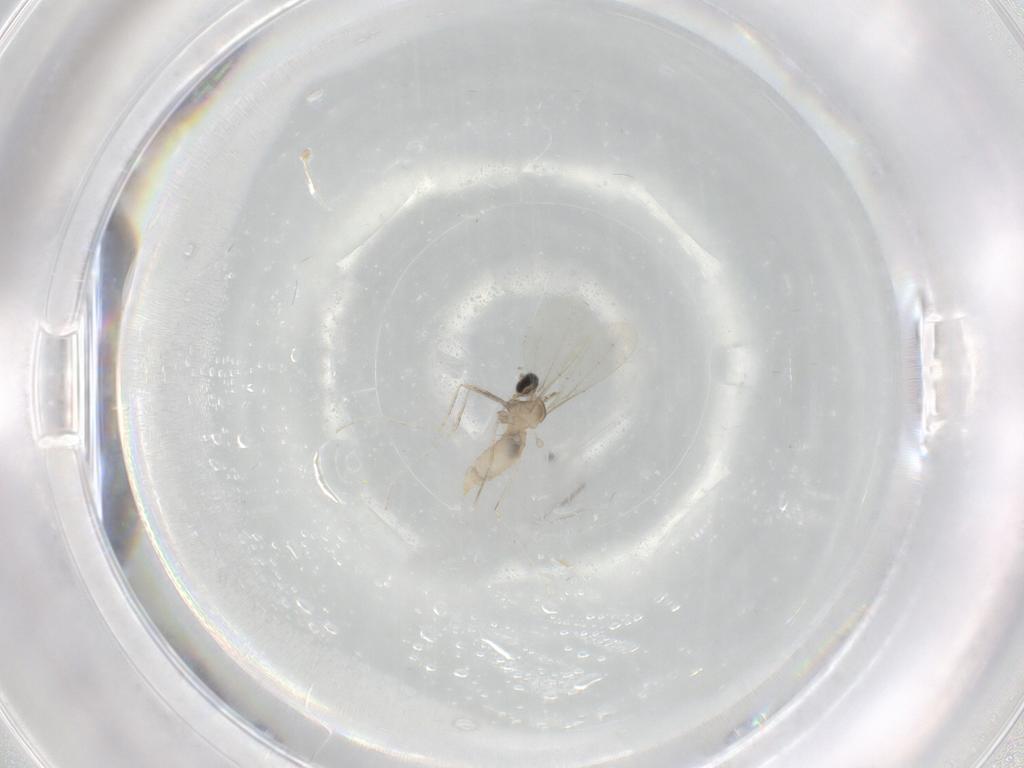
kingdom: Animalia
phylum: Arthropoda
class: Insecta
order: Diptera
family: Cecidomyiidae
